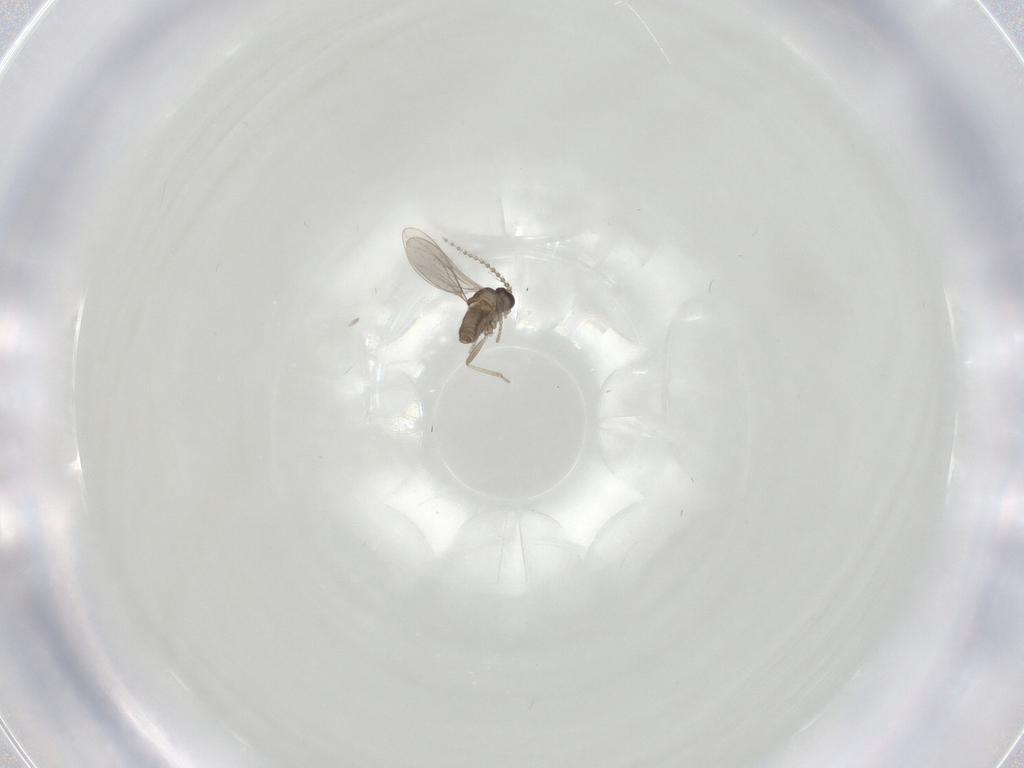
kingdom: Animalia
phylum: Arthropoda
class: Insecta
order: Diptera
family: Cecidomyiidae
